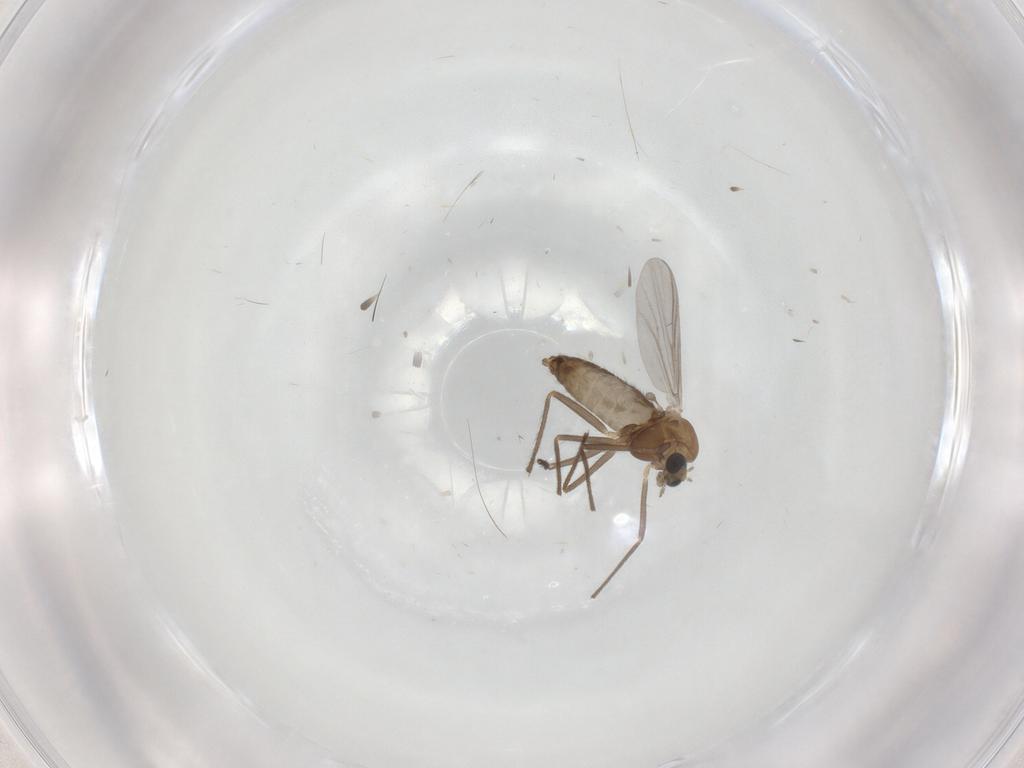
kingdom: Animalia
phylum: Arthropoda
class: Insecta
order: Diptera
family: Chironomidae
